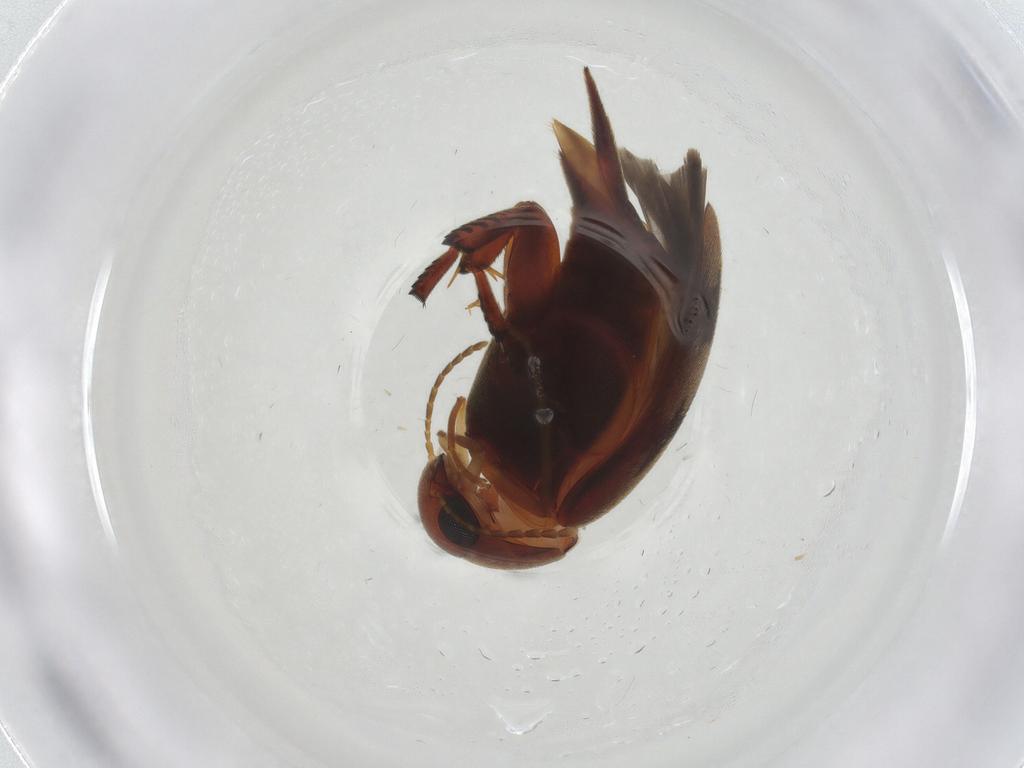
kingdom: Animalia
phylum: Arthropoda
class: Insecta
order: Coleoptera
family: Mordellidae
